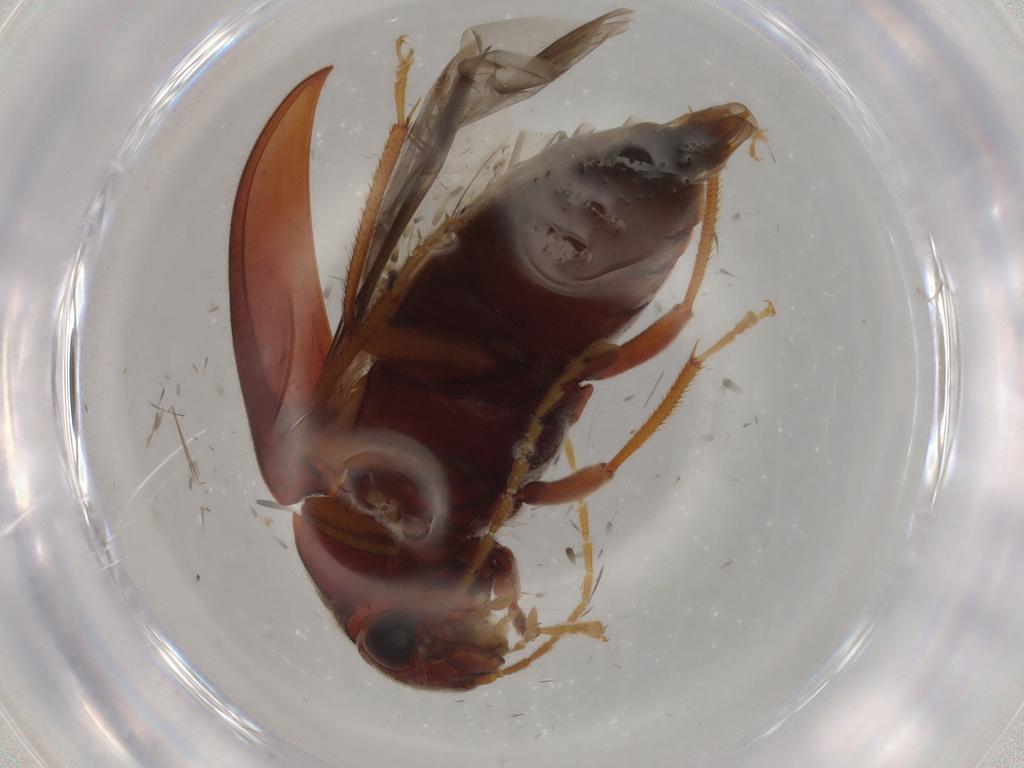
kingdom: Animalia
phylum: Arthropoda
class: Insecta
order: Coleoptera
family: Ptilodactylidae
